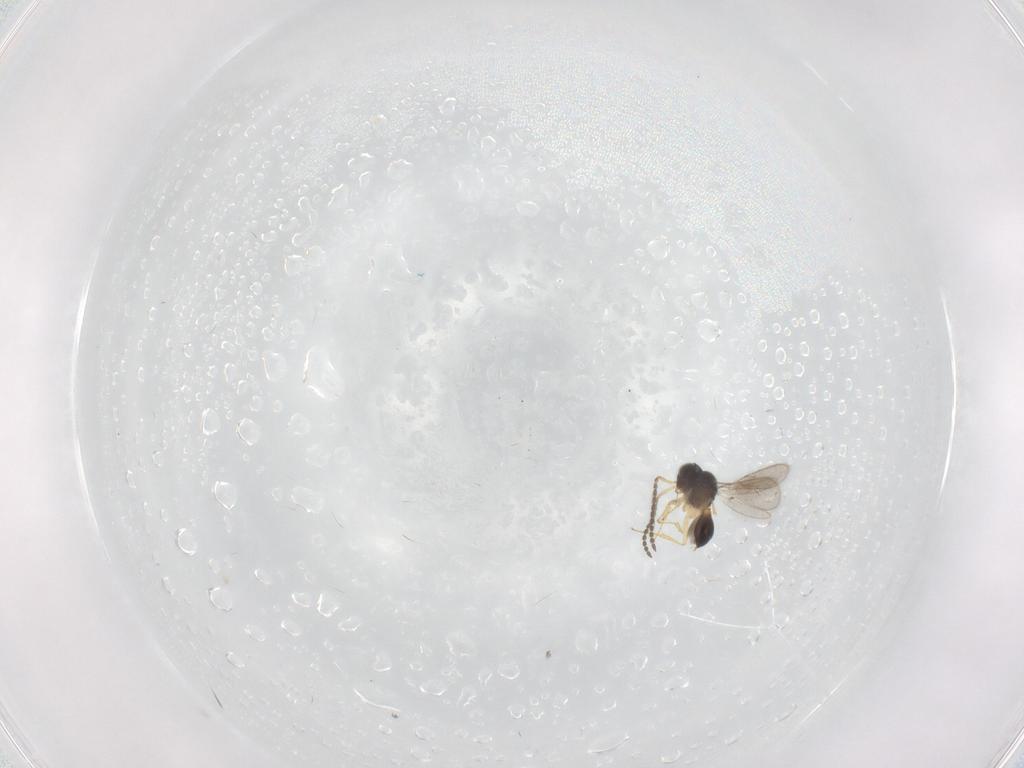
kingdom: Animalia
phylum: Arthropoda
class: Insecta
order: Hymenoptera
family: Scelionidae
